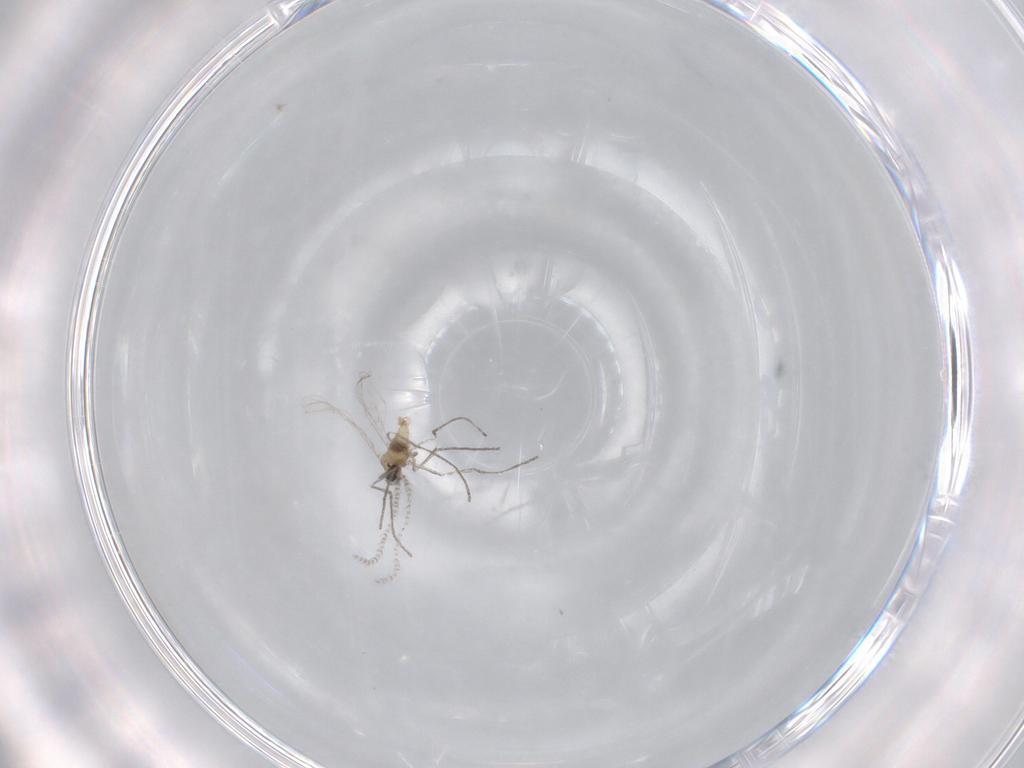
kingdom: Animalia
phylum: Arthropoda
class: Insecta
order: Diptera
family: Cecidomyiidae
